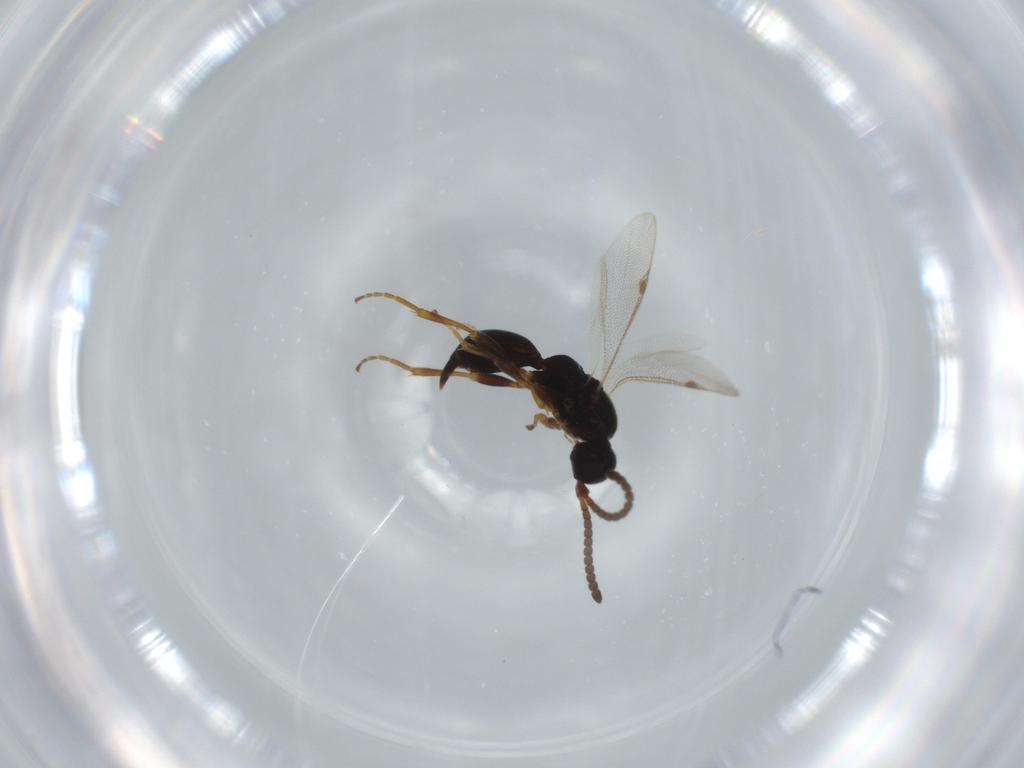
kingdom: Animalia
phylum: Arthropoda
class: Insecta
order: Hymenoptera
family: Proctotrupidae
